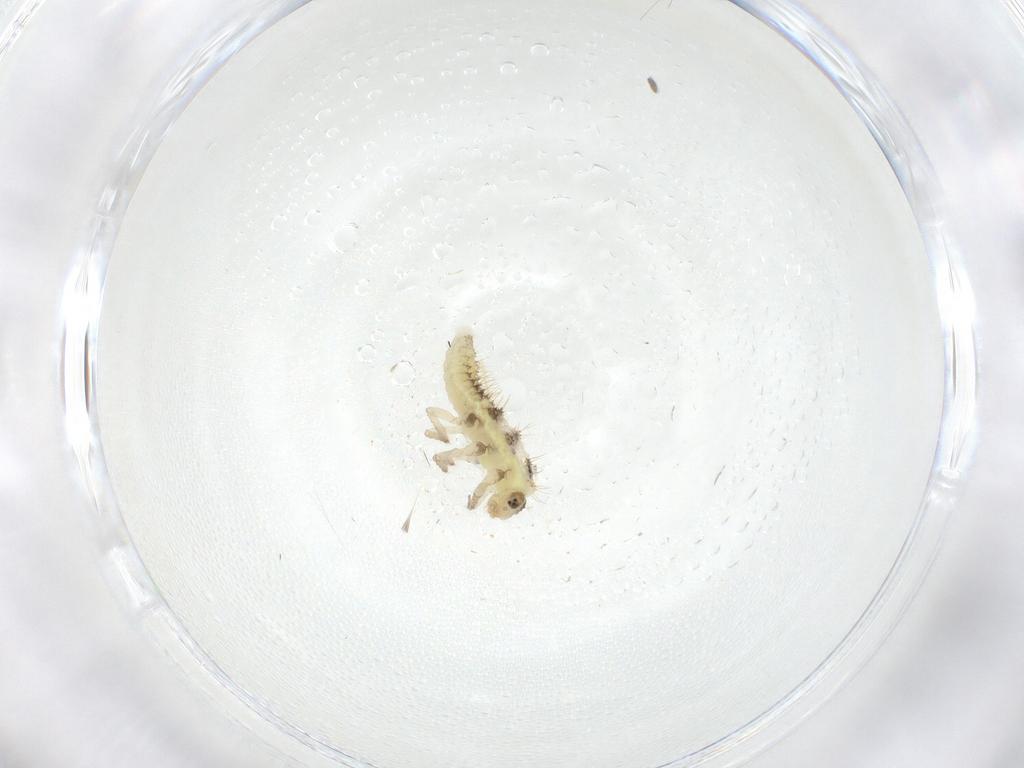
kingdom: Animalia
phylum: Arthropoda
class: Insecta
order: Coleoptera
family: Coccinellidae
